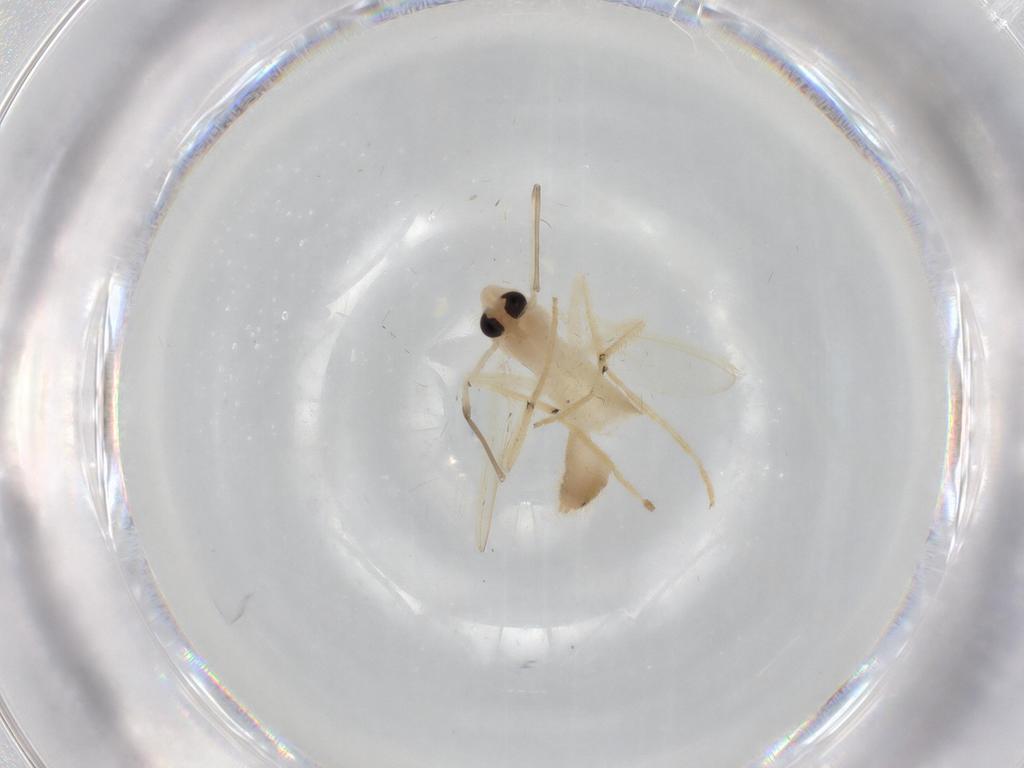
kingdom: Animalia
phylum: Arthropoda
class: Insecta
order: Diptera
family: Chironomidae
